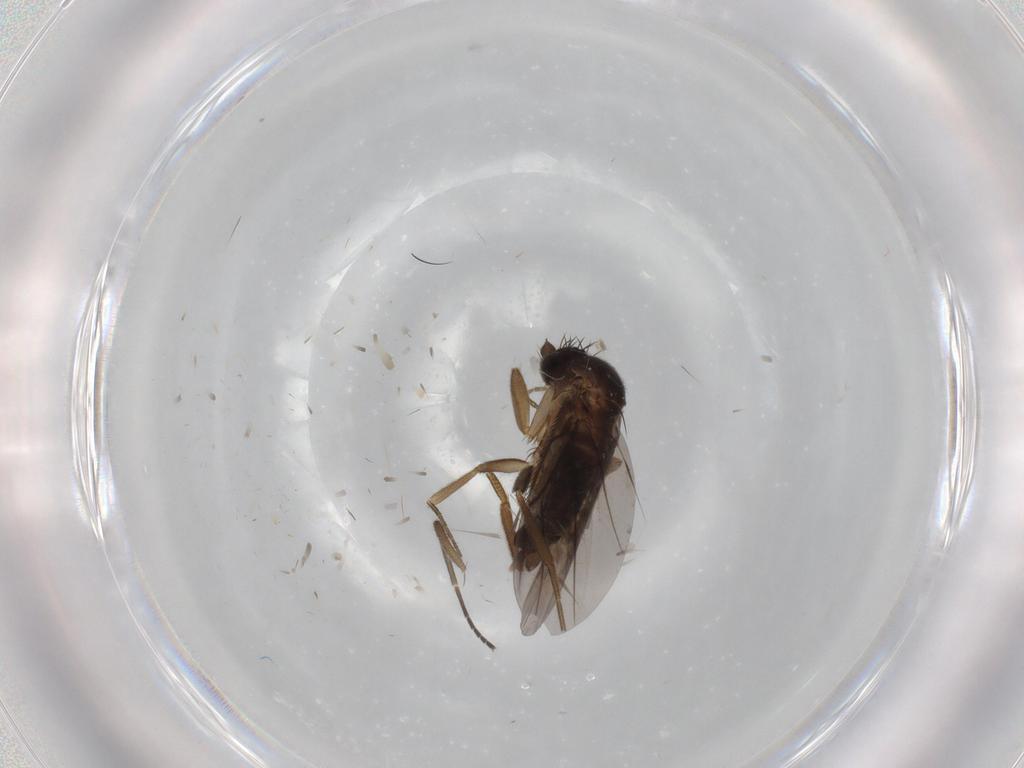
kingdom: Animalia
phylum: Arthropoda
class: Insecta
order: Diptera
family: Sciaridae
